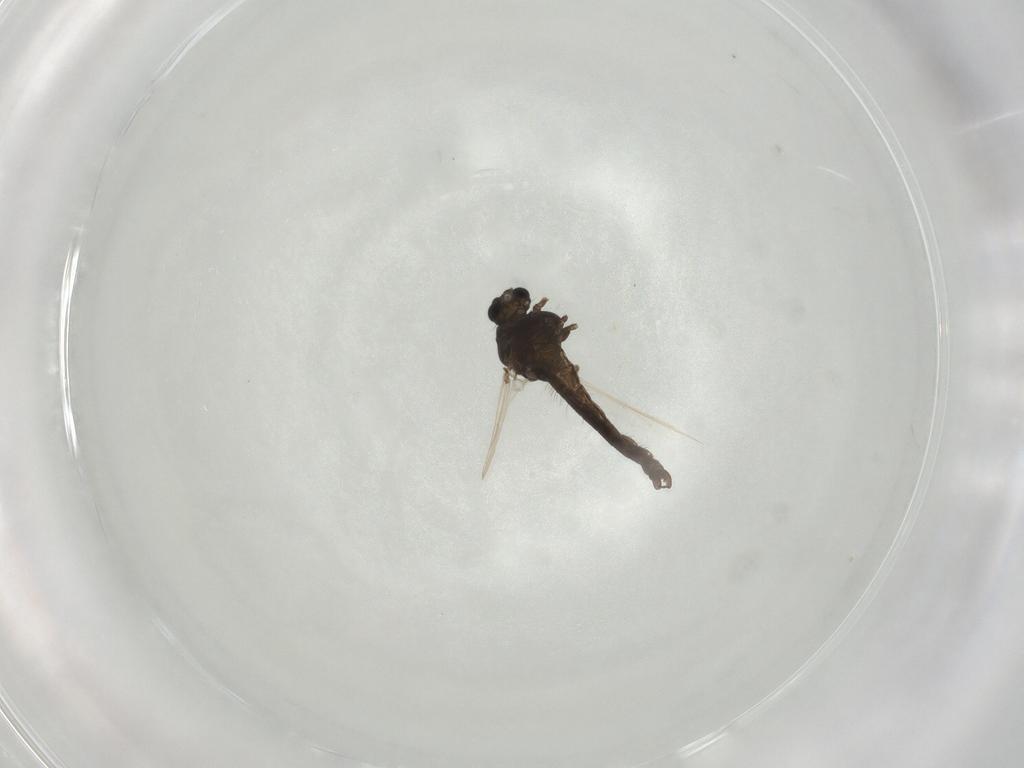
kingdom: Animalia
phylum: Arthropoda
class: Insecta
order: Diptera
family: Chironomidae
